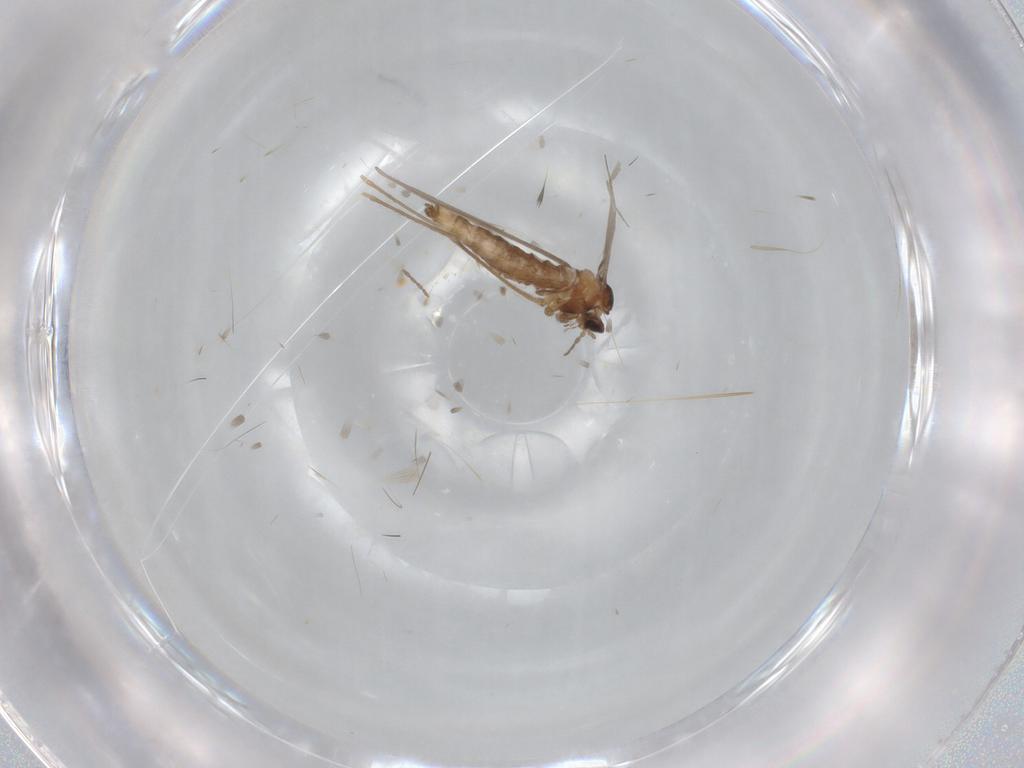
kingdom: Animalia
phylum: Arthropoda
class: Insecta
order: Diptera
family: Cecidomyiidae
